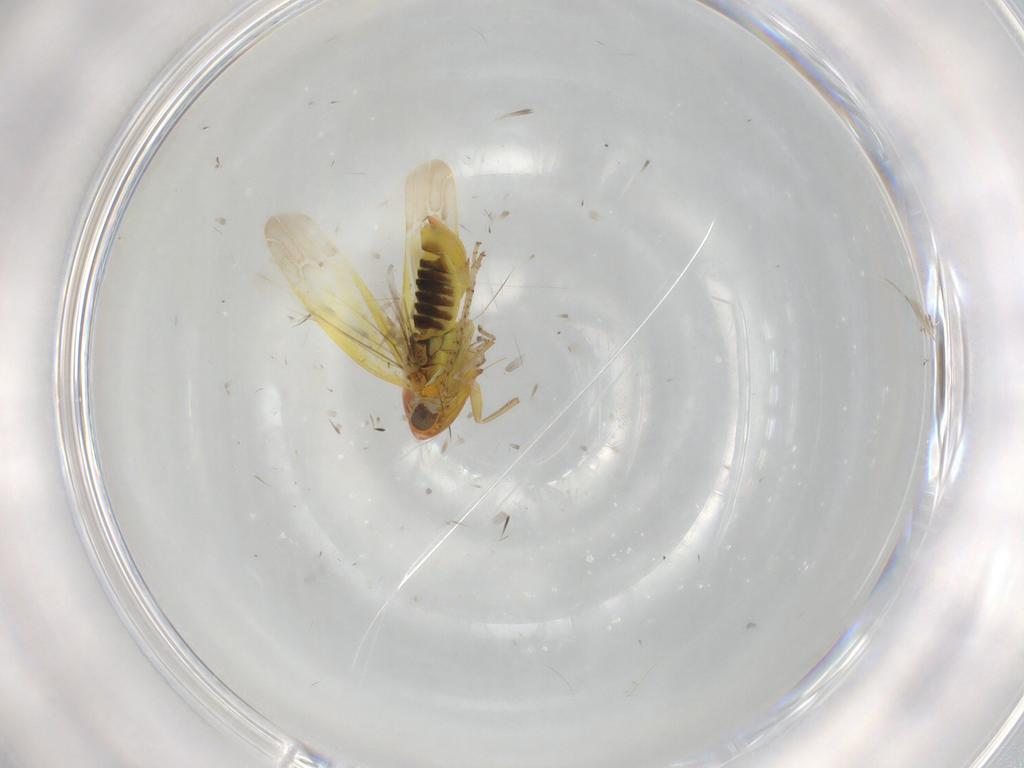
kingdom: Animalia
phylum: Arthropoda
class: Insecta
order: Hemiptera
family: Cicadellidae
